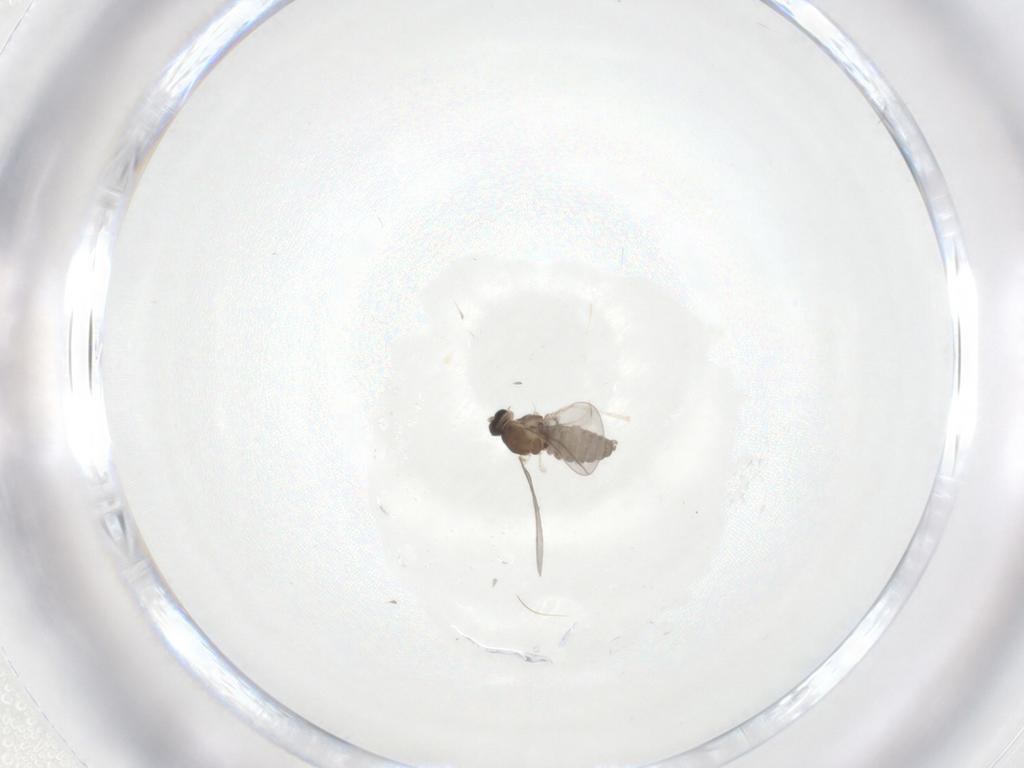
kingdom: Animalia
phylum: Arthropoda
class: Insecta
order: Diptera
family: Cecidomyiidae
